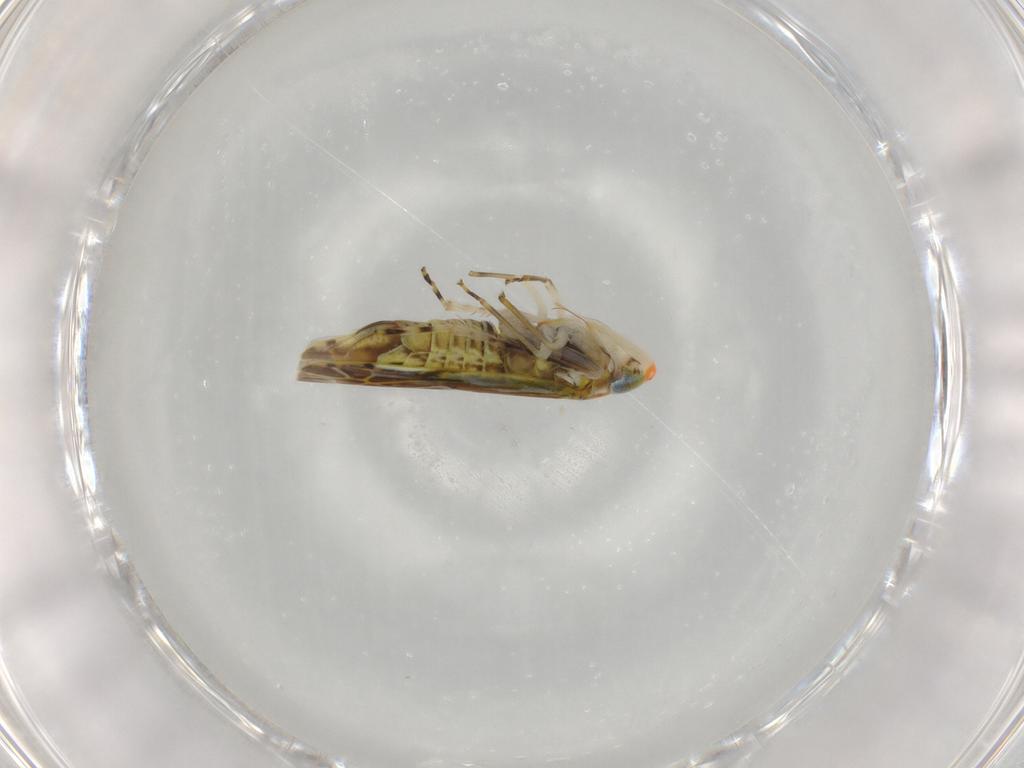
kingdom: Animalia
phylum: Arthropoda
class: Insecta
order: Hemiptera
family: Cicadellidae
